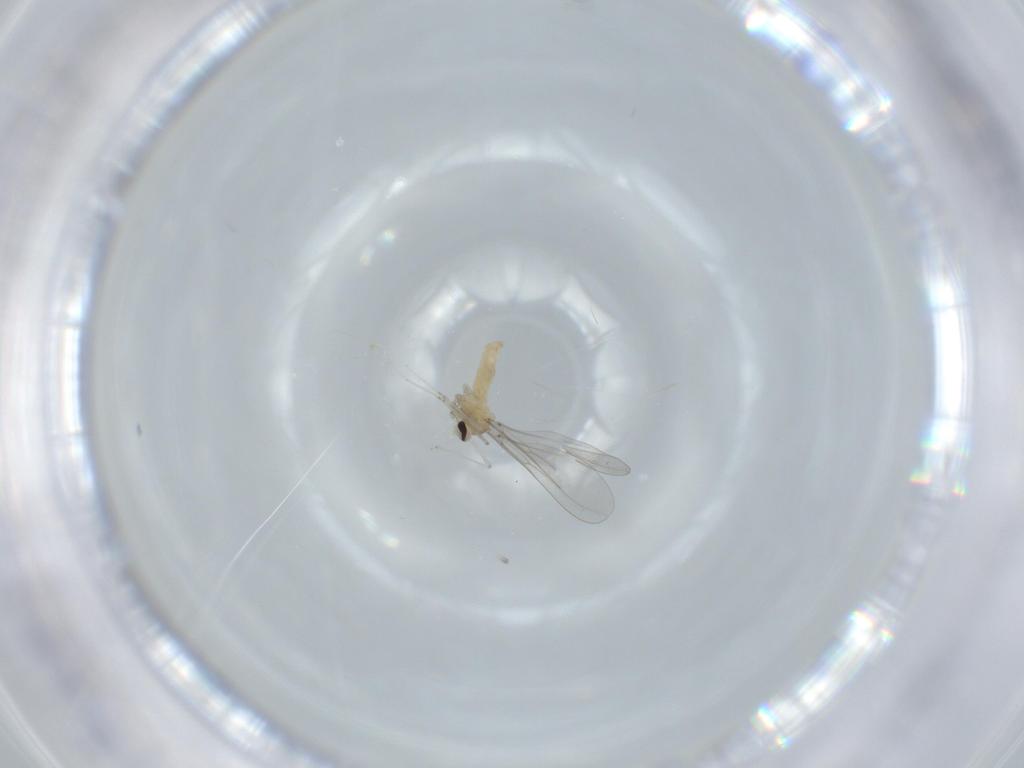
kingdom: Animalia
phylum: Arthropoda
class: Insecta
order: Diptera
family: Cecidomyiidae
